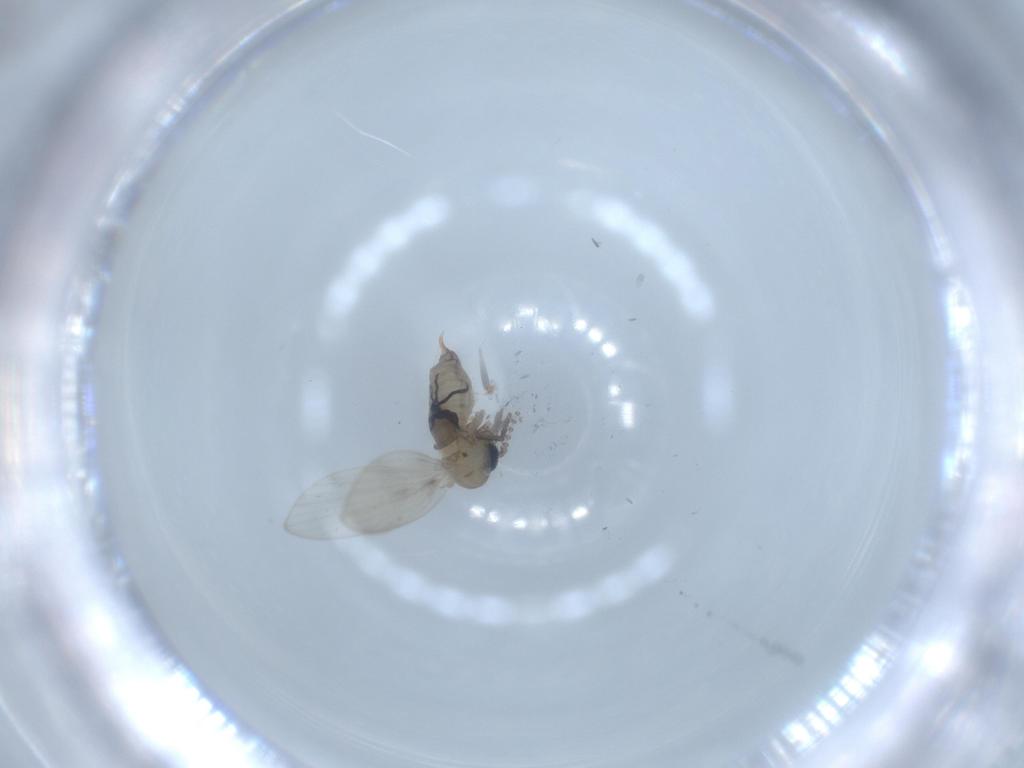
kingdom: Animalia
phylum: Arthropoda
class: Insecta
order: Diptera
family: Psychodidae
